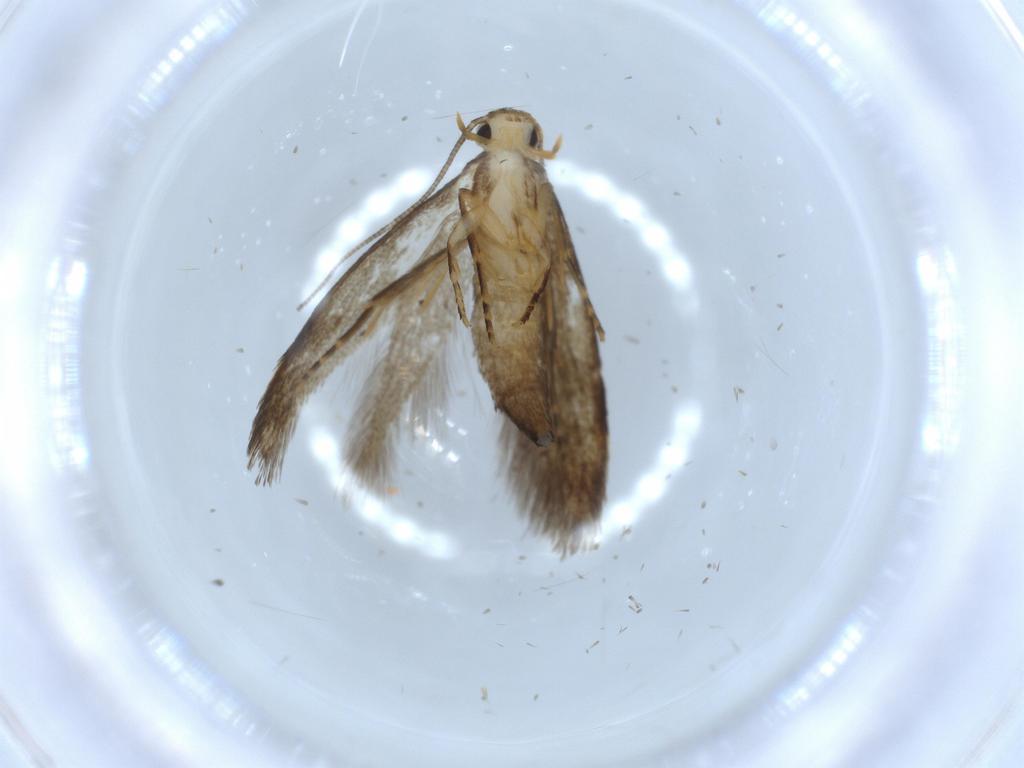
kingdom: Animalia
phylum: Arthropoda
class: Insecta
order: Lepidoptera
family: Tineidae
